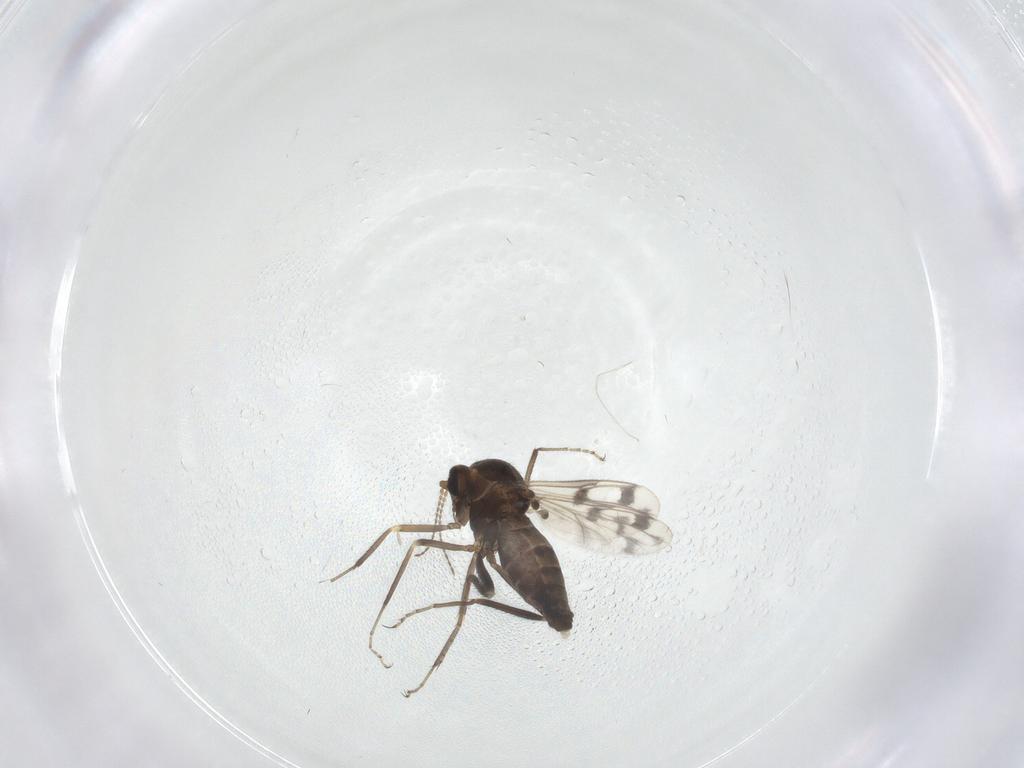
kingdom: Animalia
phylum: Arthropoda
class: Insecta
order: Diptera
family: Ceratopogonidae
